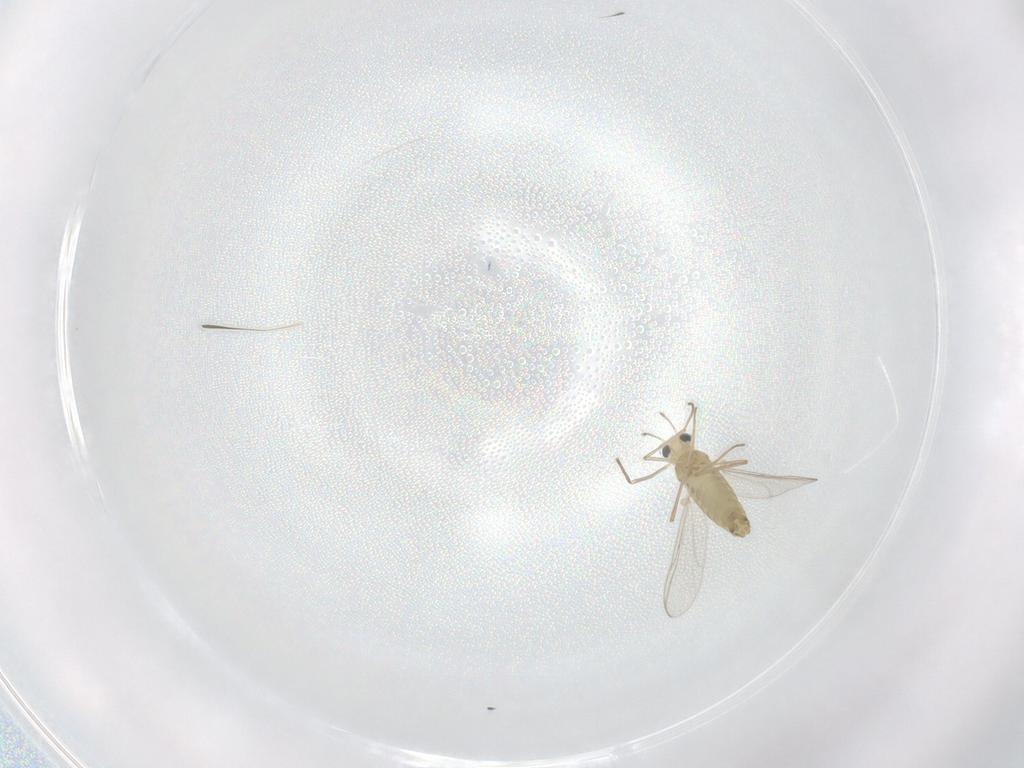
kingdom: Animalia
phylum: Arthropoda
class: Insecta
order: Diptera
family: Chironomidae
